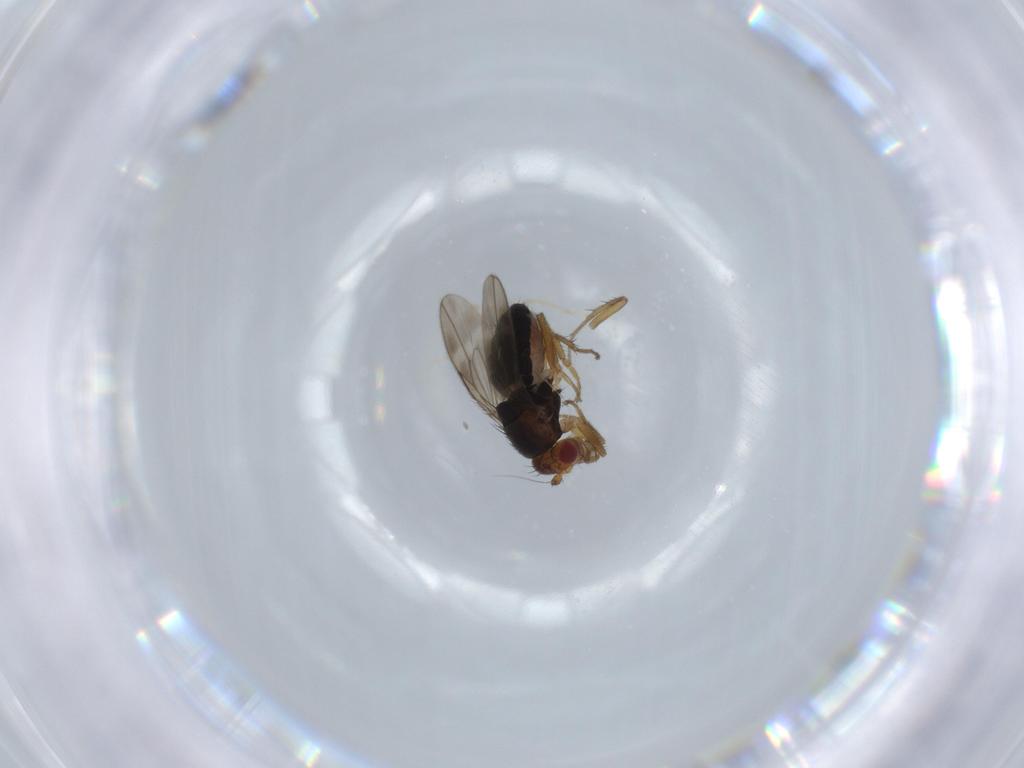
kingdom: Animalia
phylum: Arthropoda
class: Insecta
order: Diptera
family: Sphaeroceridae
